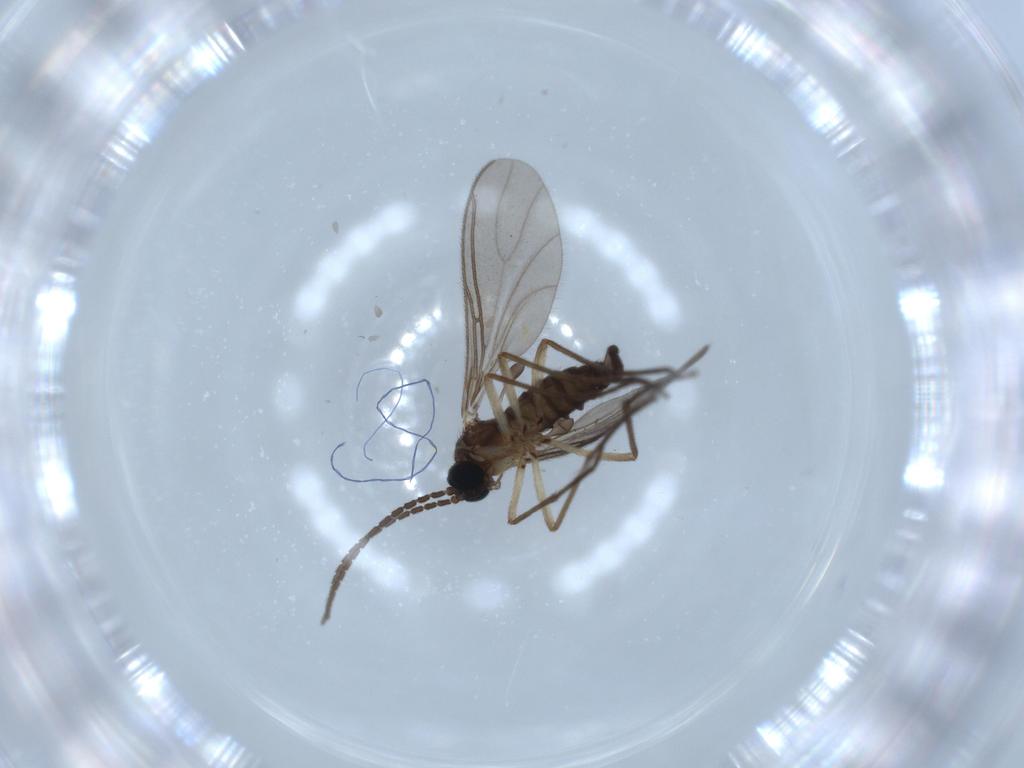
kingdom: Animalia
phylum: Arthropoda
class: Insecta
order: Diptera
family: Sciaridae
